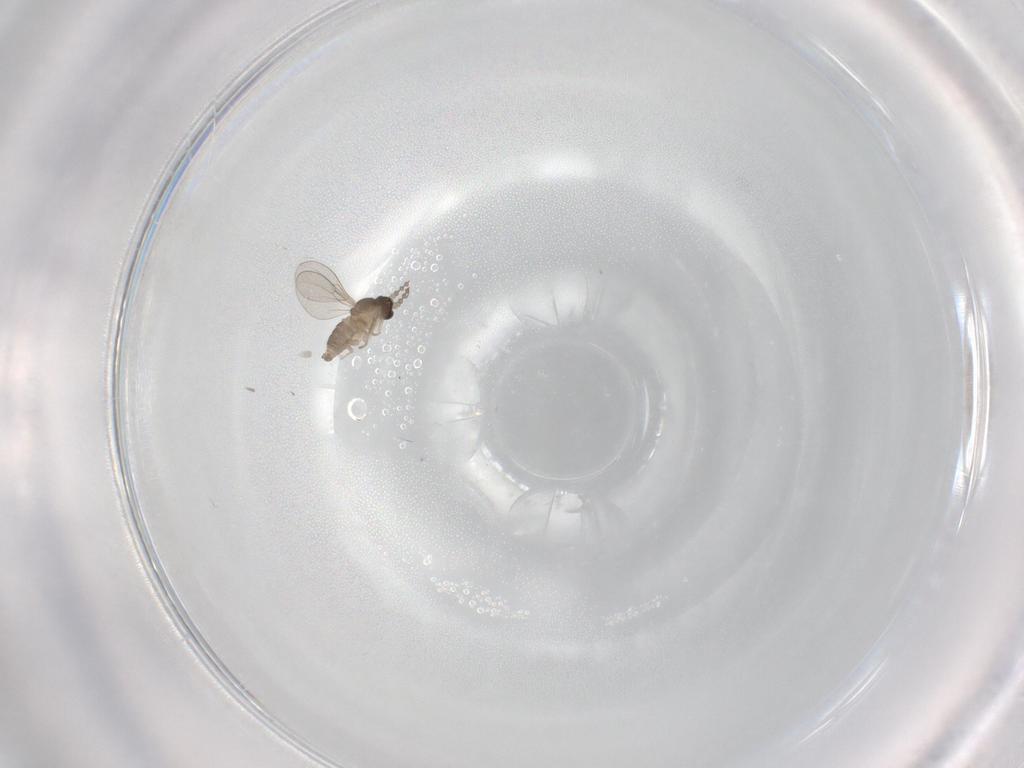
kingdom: Animalia
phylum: Arthropoda
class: Insecta
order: Diptera
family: Cecidomyiidae
